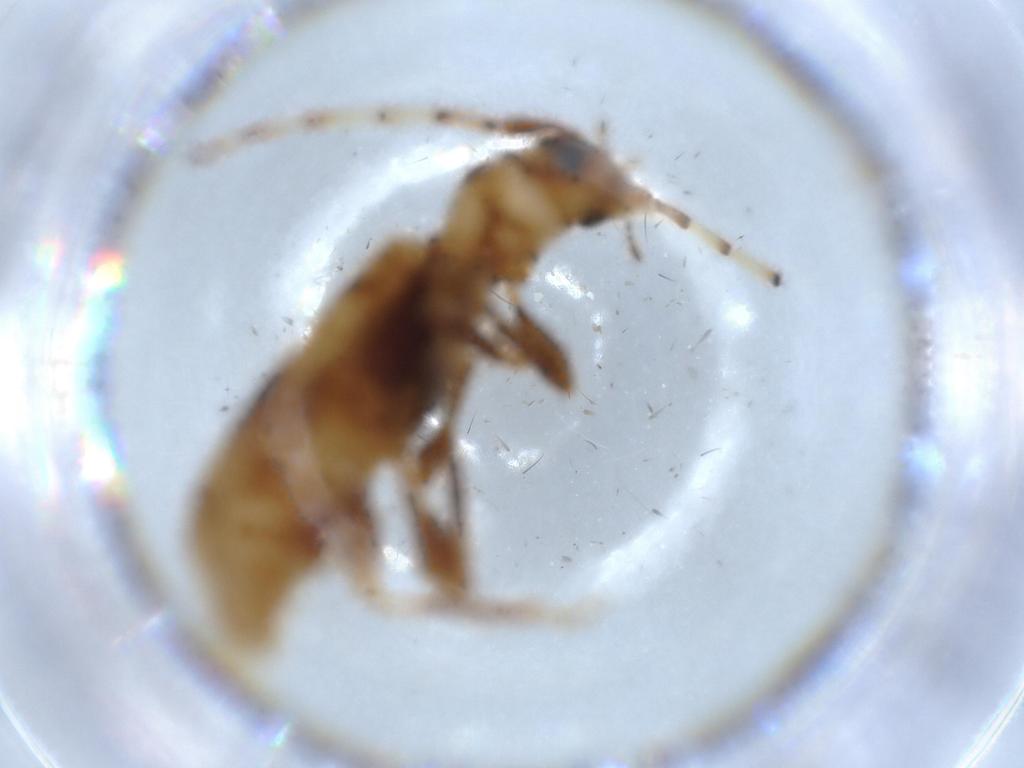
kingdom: Animalia
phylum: Arthropoda
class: Insecta
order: Coleoptera
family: Cerambycidae
